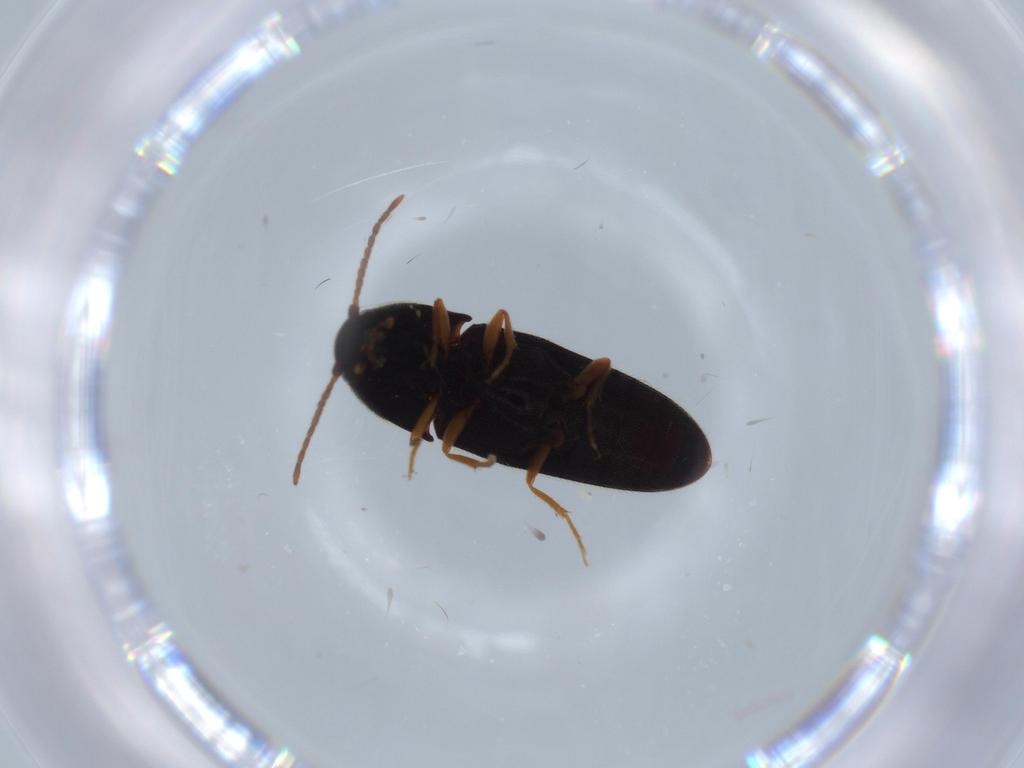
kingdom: Animalia
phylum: Arthropoda
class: Insecta
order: Coleoptera
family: Elateridae
